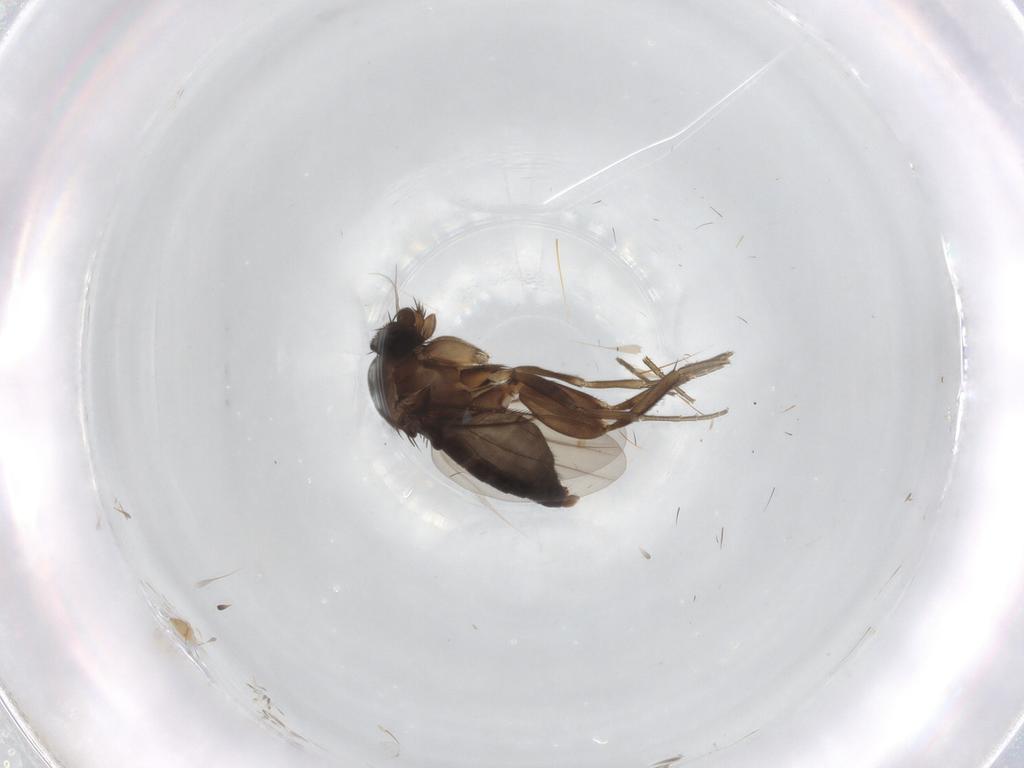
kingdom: Animalia
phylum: Arthropoda
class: Insecta
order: Diptera
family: Phoridae
